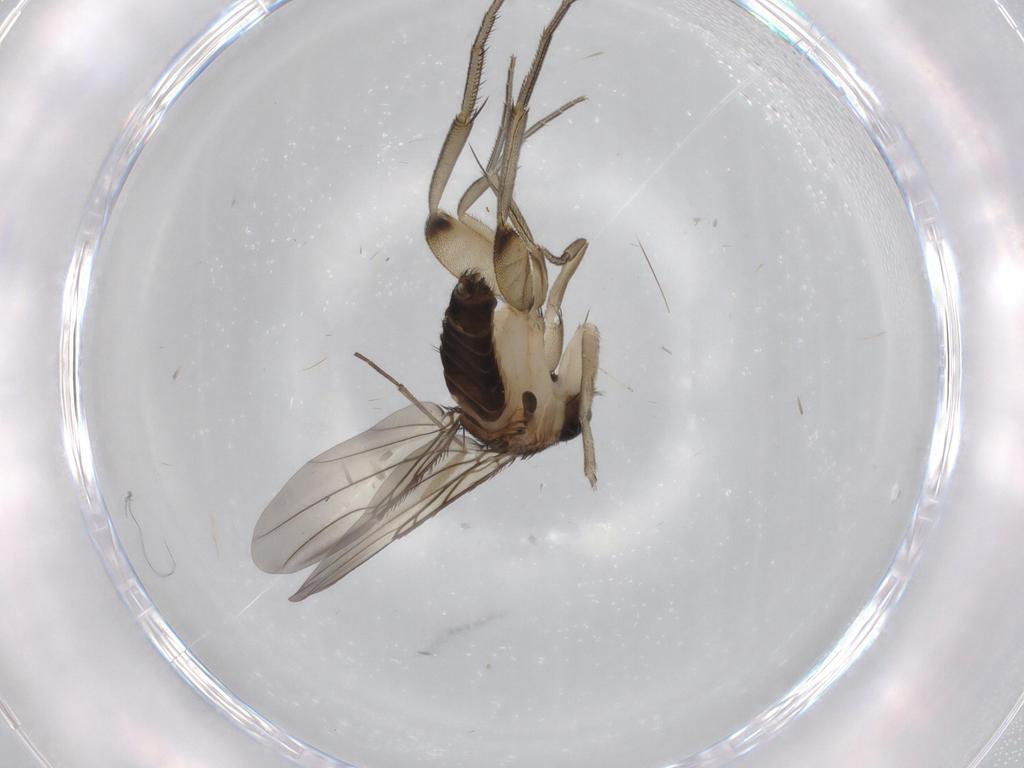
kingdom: Animalia
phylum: Arthropoda
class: Insecta
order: Diptera
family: Phoridae
